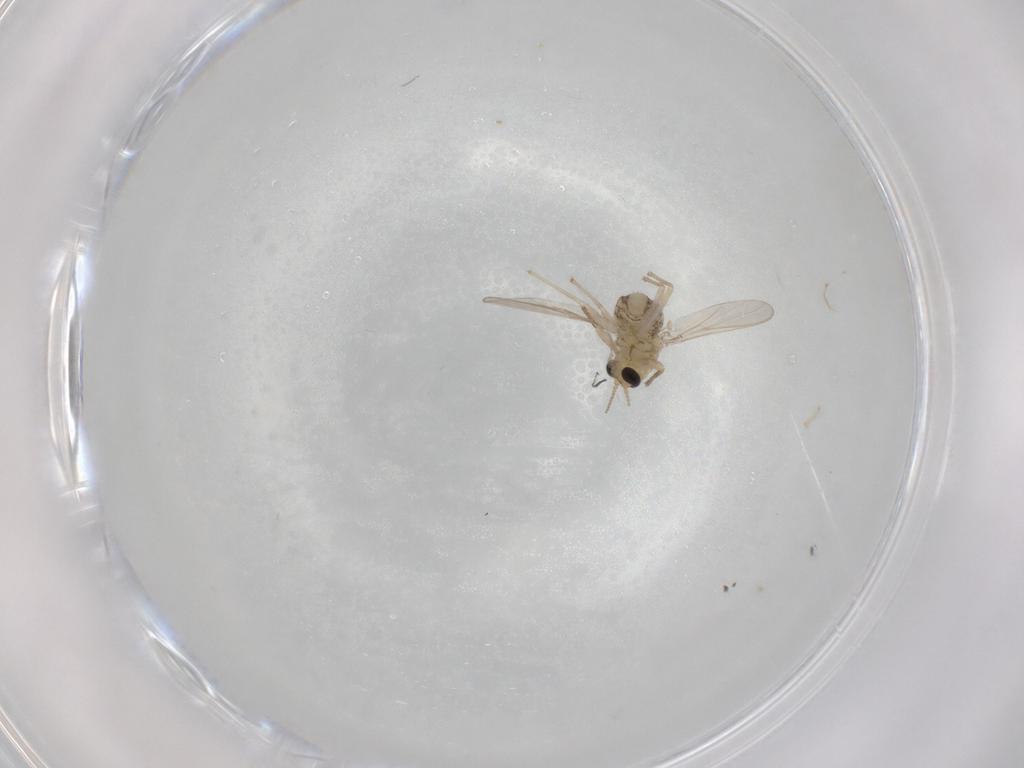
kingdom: Animalia
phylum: Arthropoda
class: Insecta
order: Diptera
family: Chironomidae
